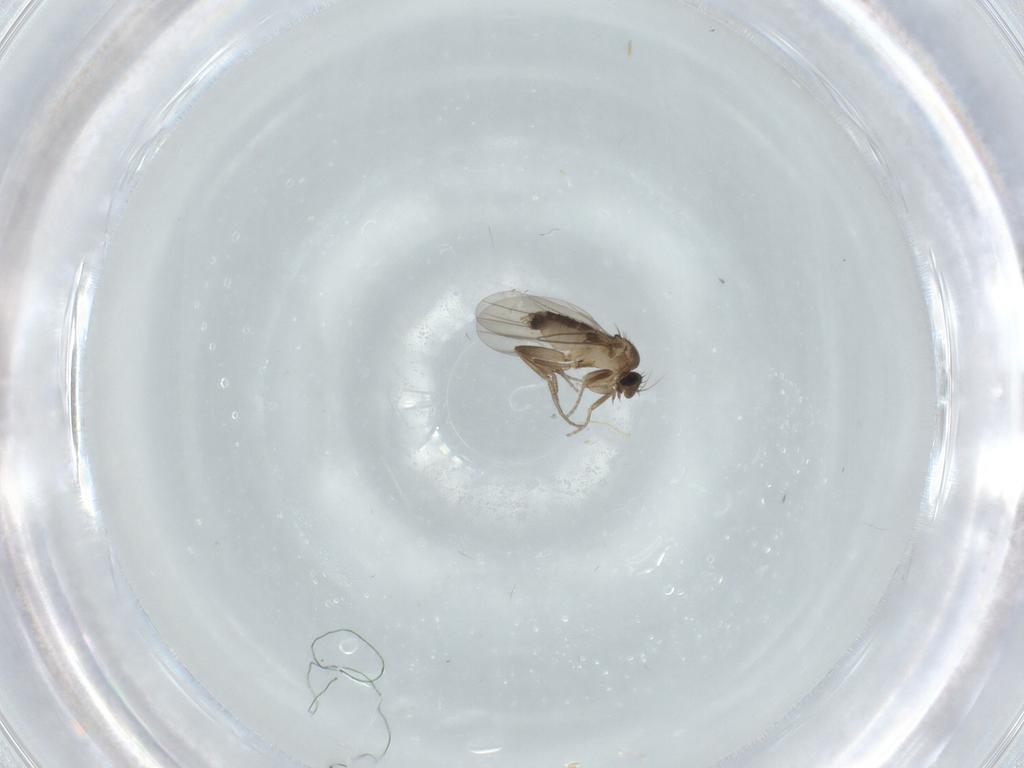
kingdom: Animalia
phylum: Arthropoda
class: Insecta
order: Diptera
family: Phoridae
